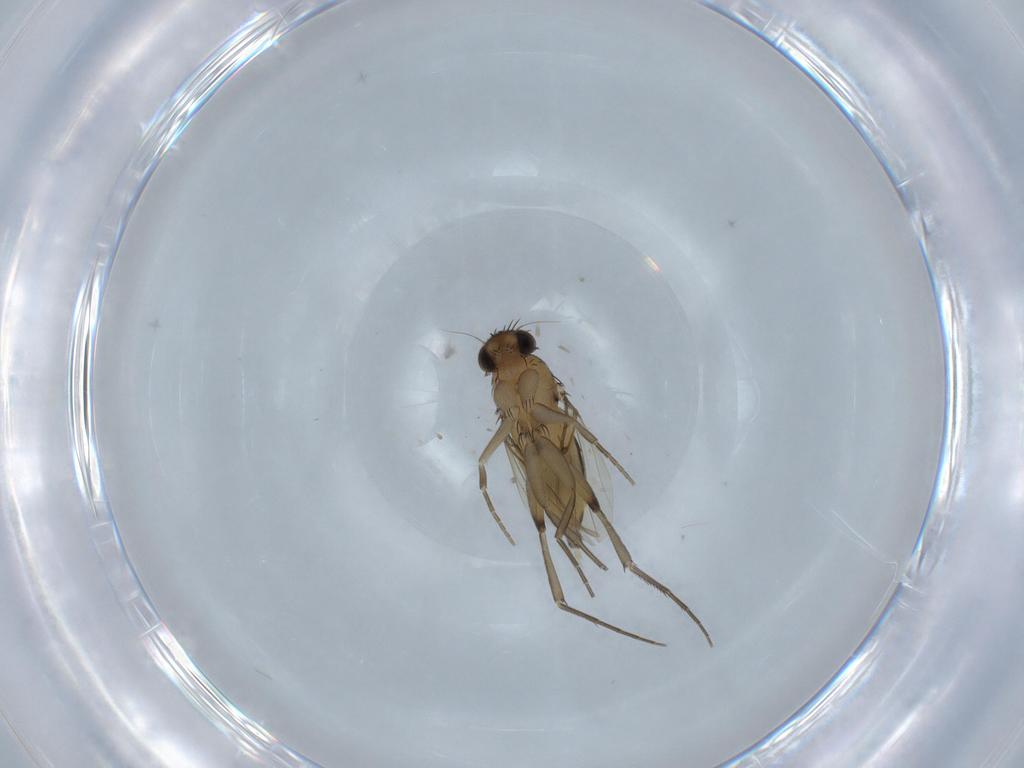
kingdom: Animalia
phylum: Arthropoda
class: Insecta
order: Diptera
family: Phoridae
